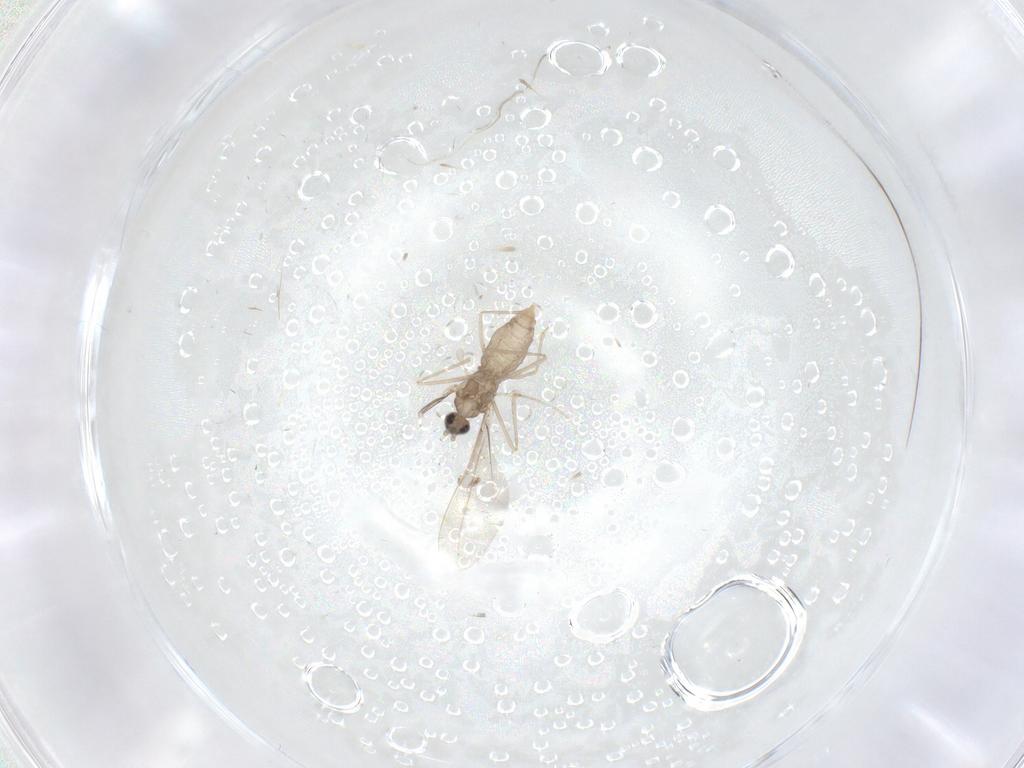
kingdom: Animalia
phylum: Arthropoda
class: Insecta
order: Diptera
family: Cecidomyiidae
